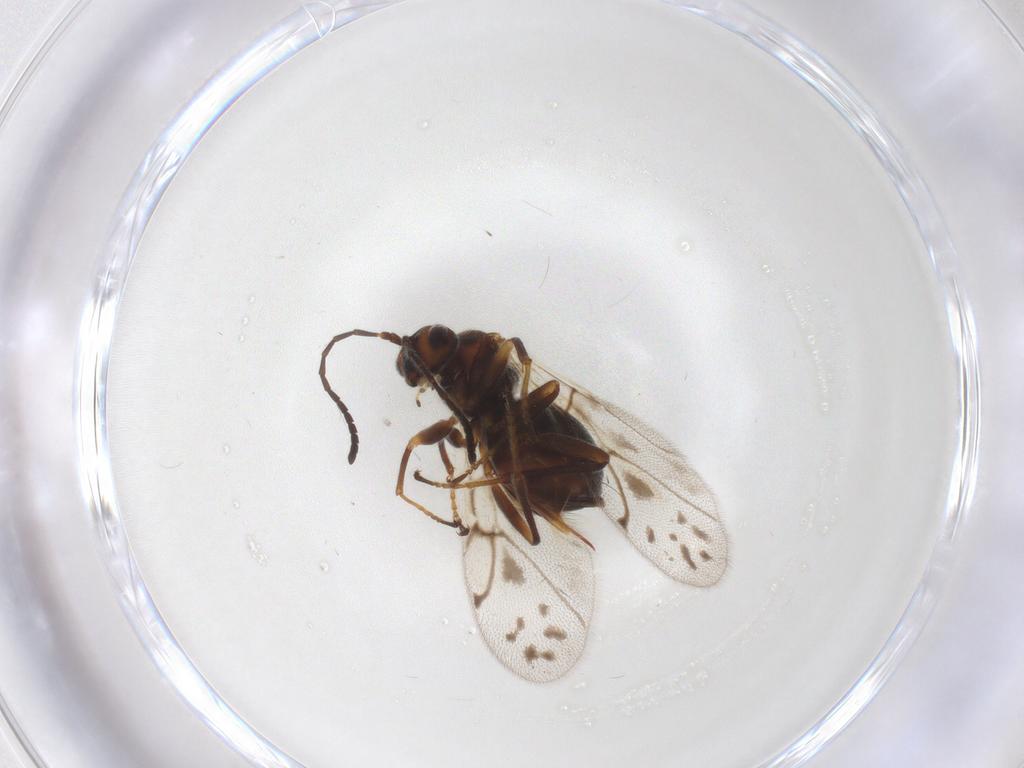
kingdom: Animalia
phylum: Arthropoda
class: Insecta
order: Hymenoptera
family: Cynipidae
